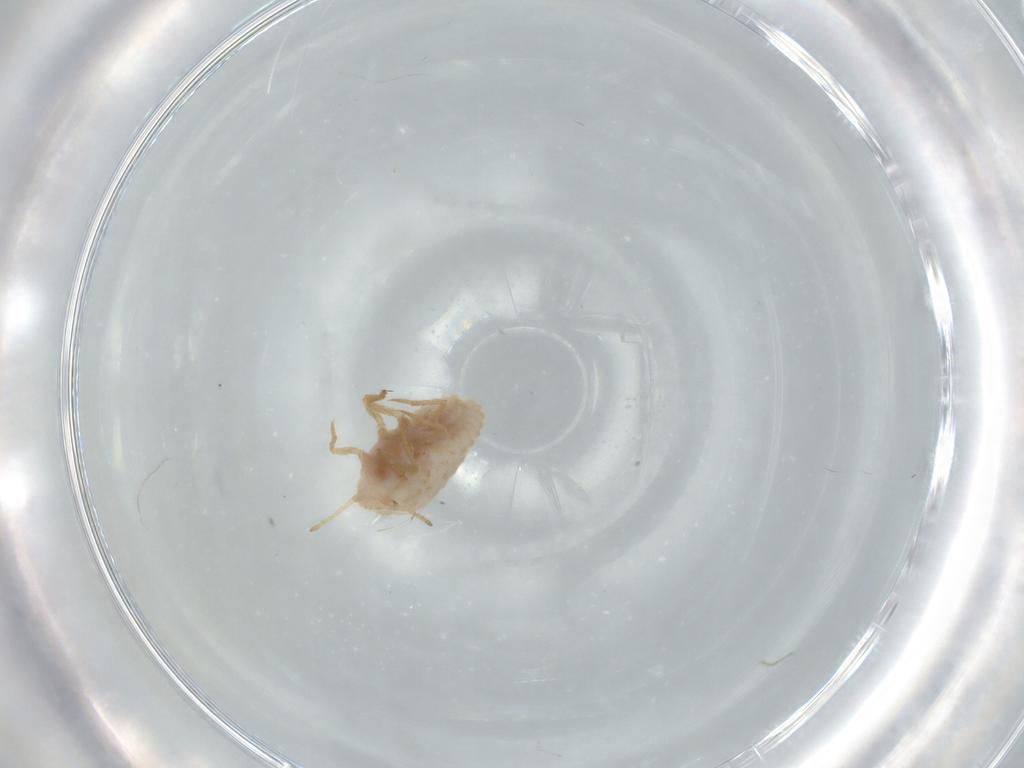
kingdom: Animalia
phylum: Arthropoda
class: Insecta
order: Hemiptera
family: Coccoidea_incertae_sedis
